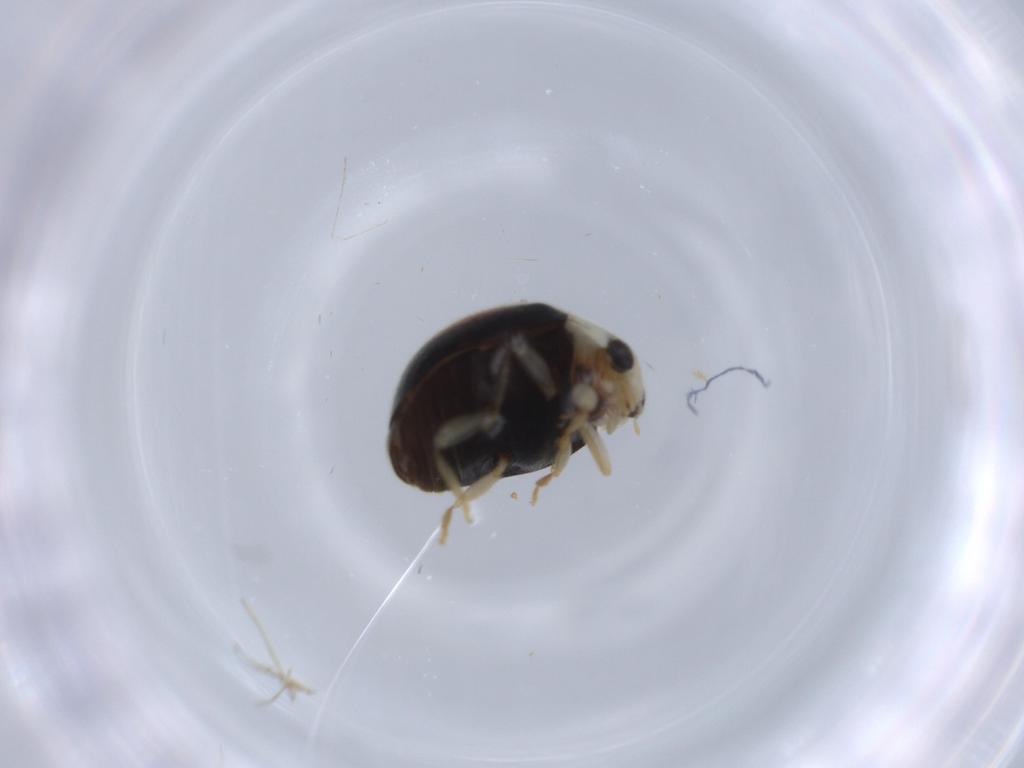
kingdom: Animalia
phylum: Arthropoda
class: Insecta
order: Coleoptera
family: Coccinellidae
